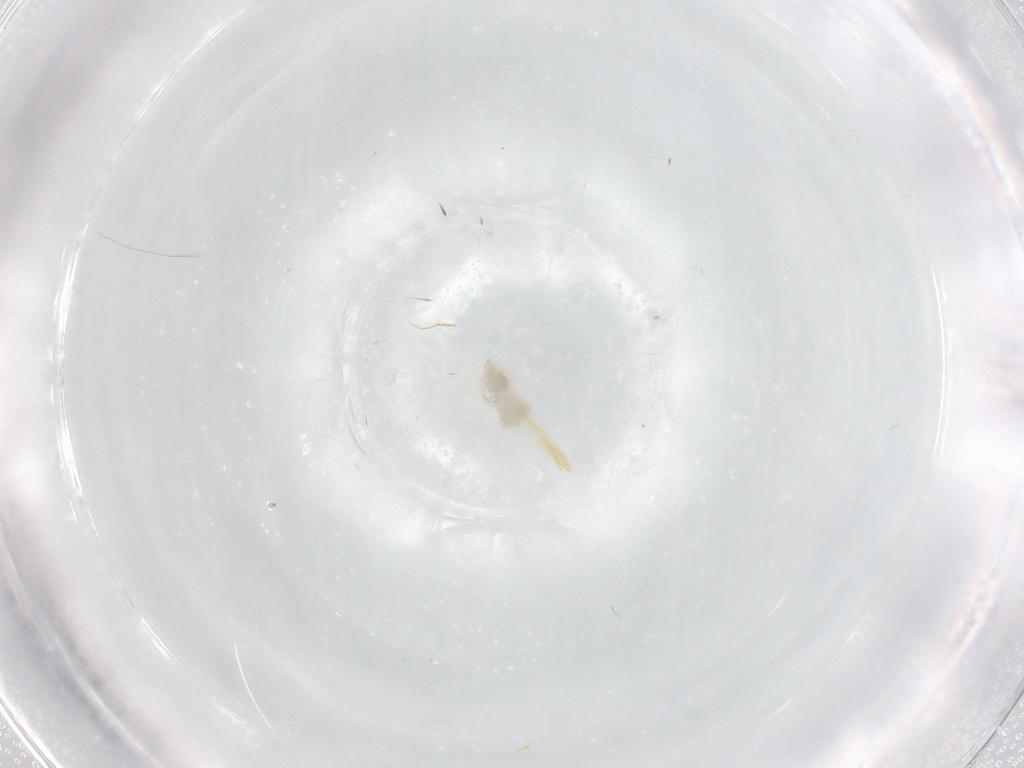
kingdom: Animalia
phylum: Arthropoda
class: Insecta
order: Hemiptera
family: Cicadellidae
